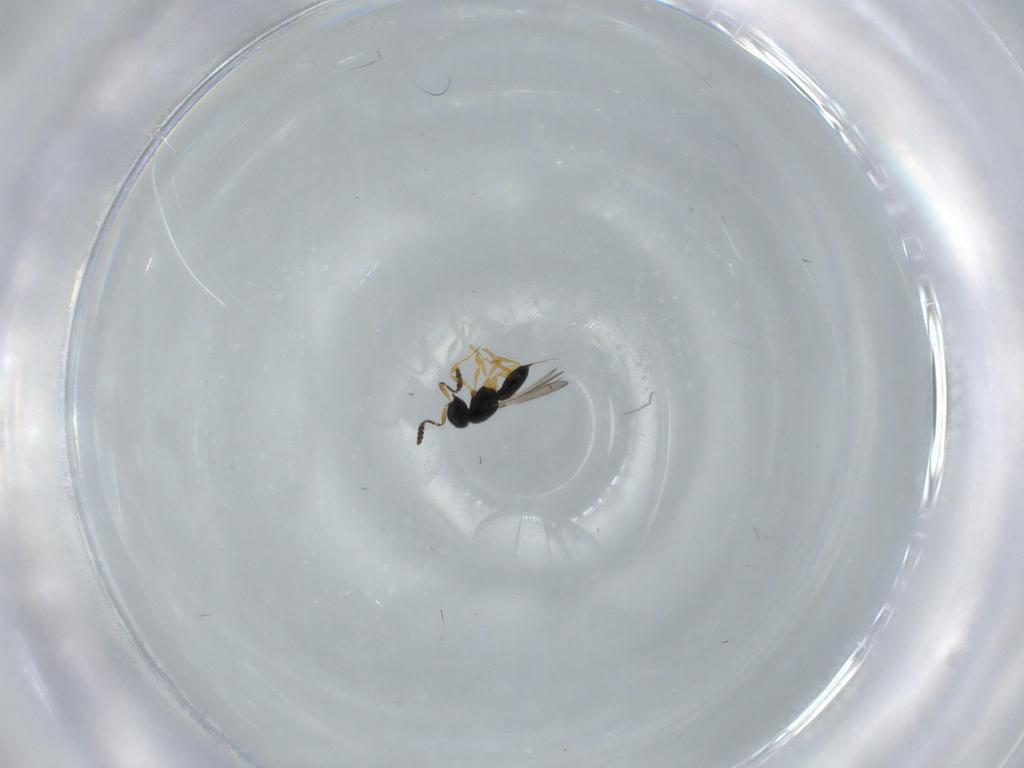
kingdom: Animalia
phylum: Arthropoda
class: Insecta
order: Hymenoptera
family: Scelionidae
